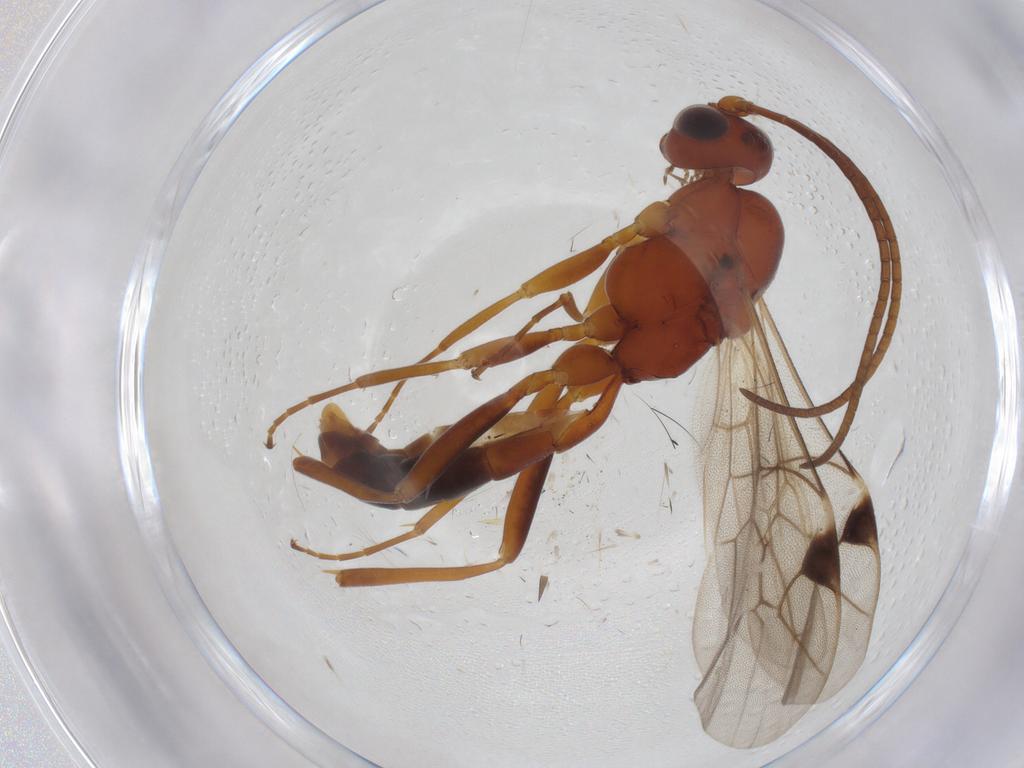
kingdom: Animalia
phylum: Arthropoda
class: Insecta
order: Hymenoptera
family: Ichneumonidae
